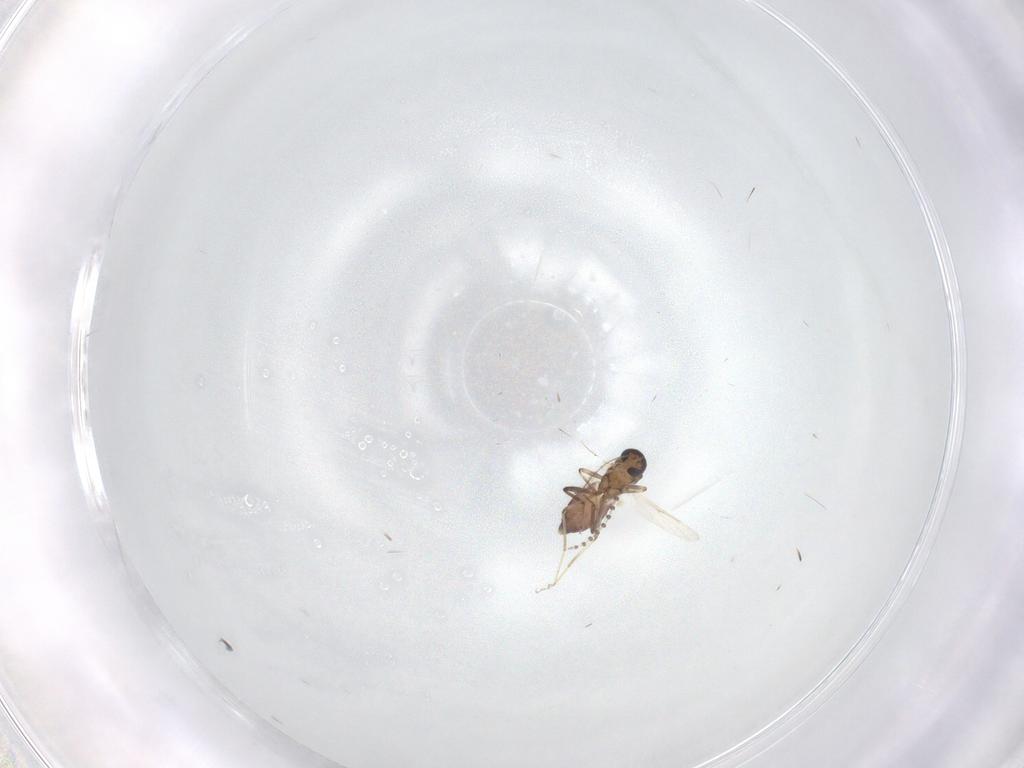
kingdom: Animalia
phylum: Arthropoda
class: Insecta
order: Diptera
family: Ceratopogonidae
